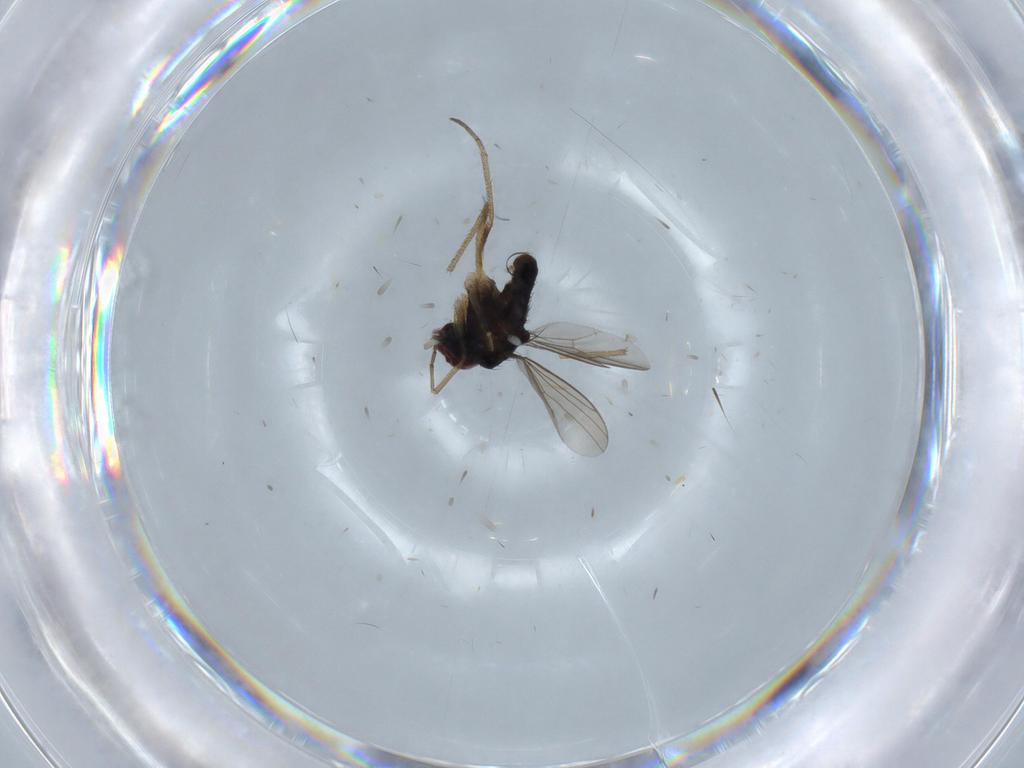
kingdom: Animalia
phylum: Arthropoda
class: Insecta
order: Diptera
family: Dolichopodidae
